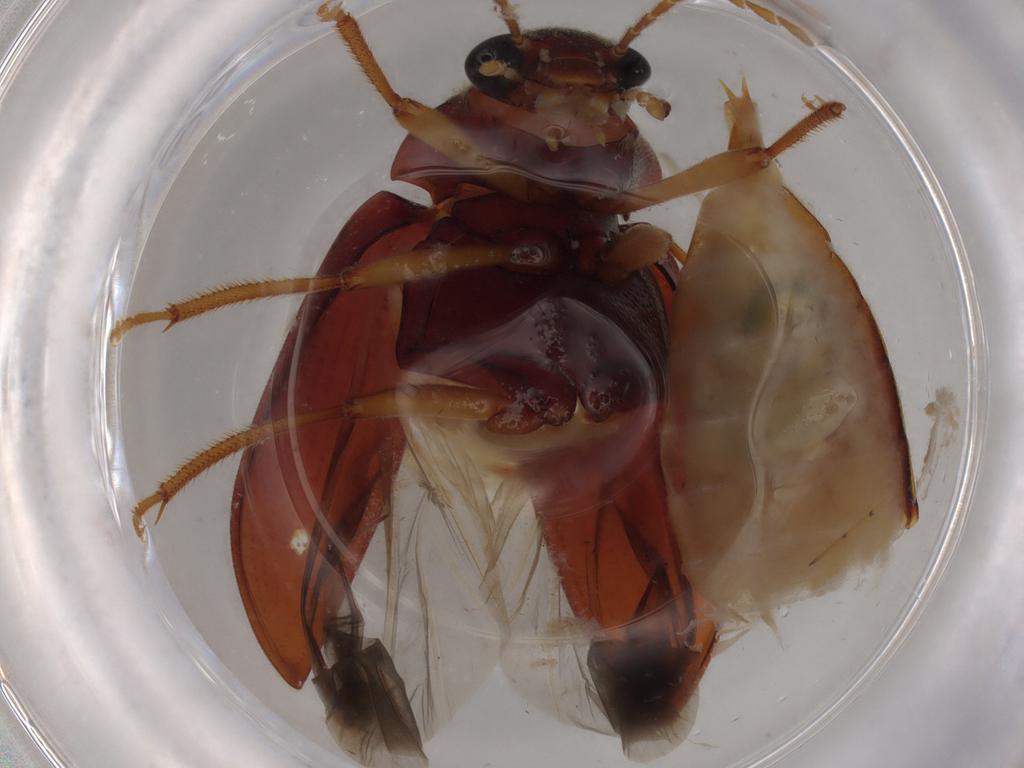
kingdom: Animalia
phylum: Arthropoda
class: Insecta
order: Coleoptera
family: Ptilodactylidae
